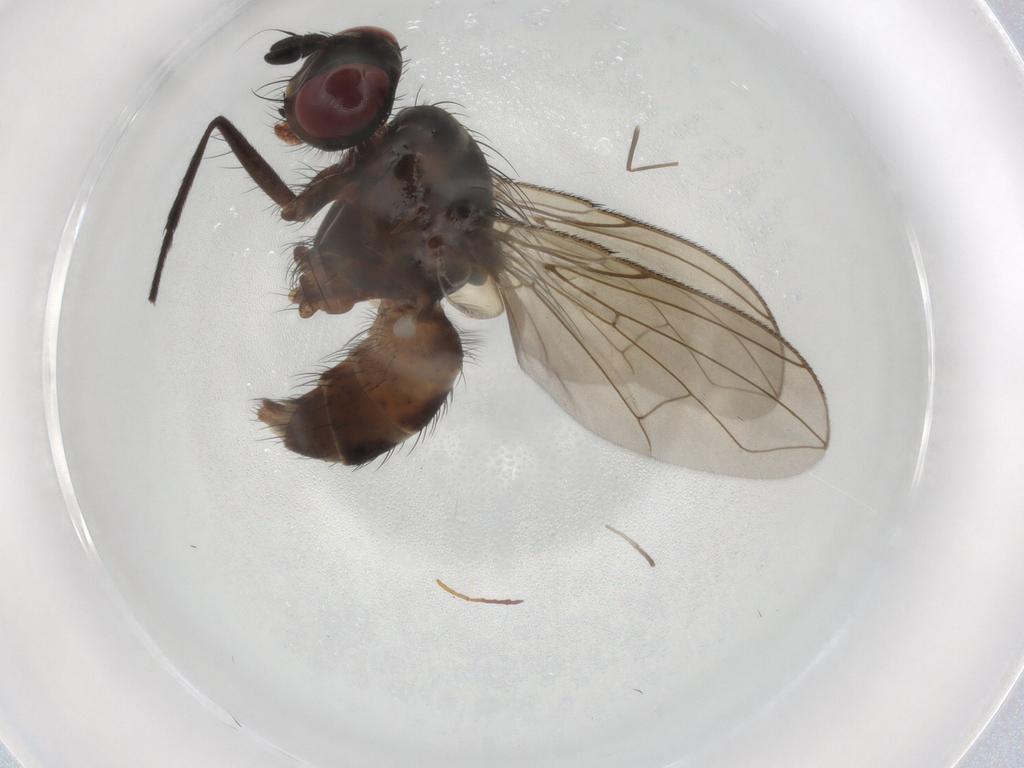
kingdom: Animalia
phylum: Arthropoda
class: Insecta
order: Diptera
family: Muscidae
